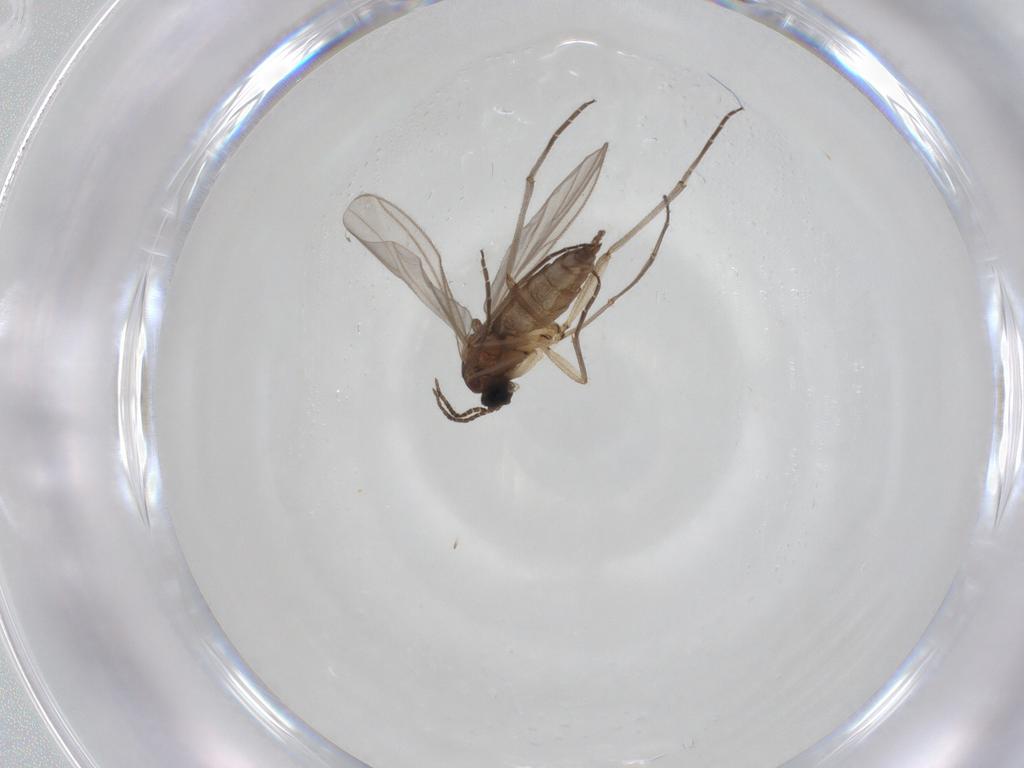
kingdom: Animalia
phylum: Arthropoda
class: Insecta
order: Diptera
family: Sciaridae
